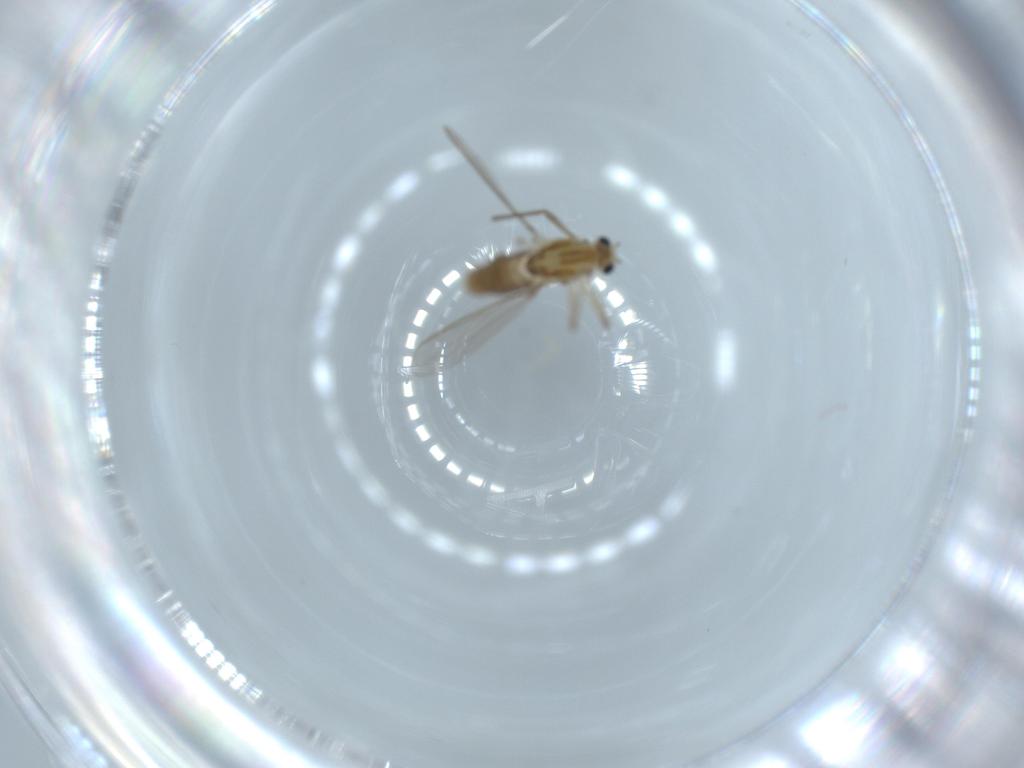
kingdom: Animalia
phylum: Arthropoda
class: Insecta
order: Diptera
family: Chironomidae
